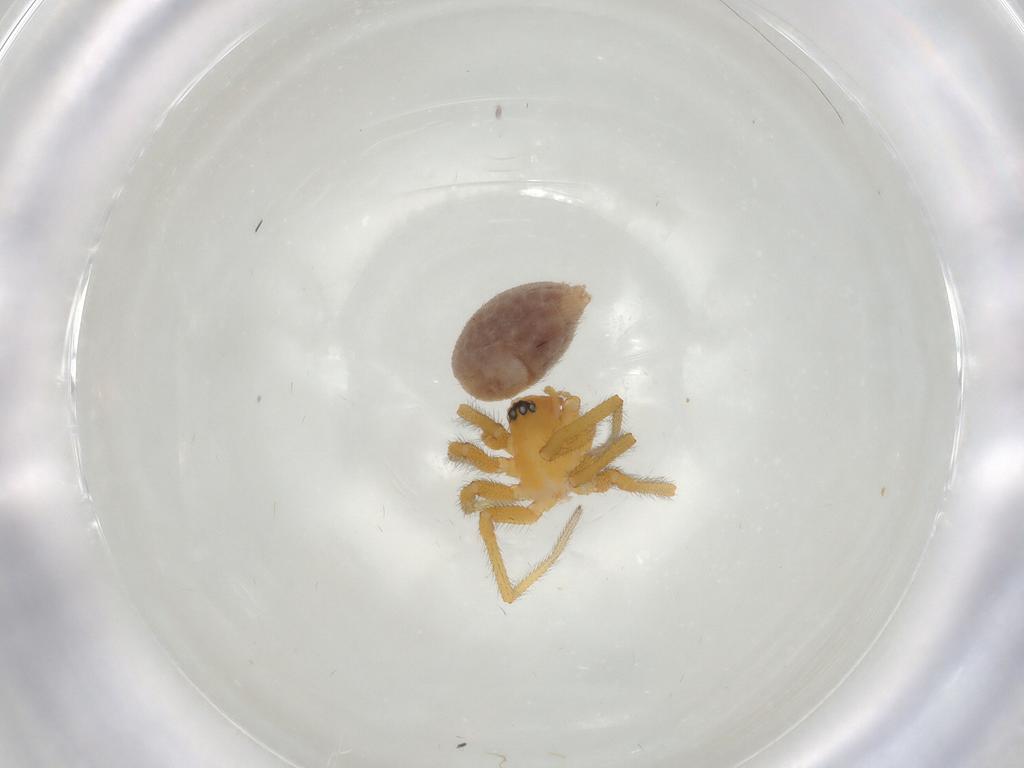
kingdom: Animalia
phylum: Arthropoda
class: Arachnida
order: Araneae
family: Linyphiidae
